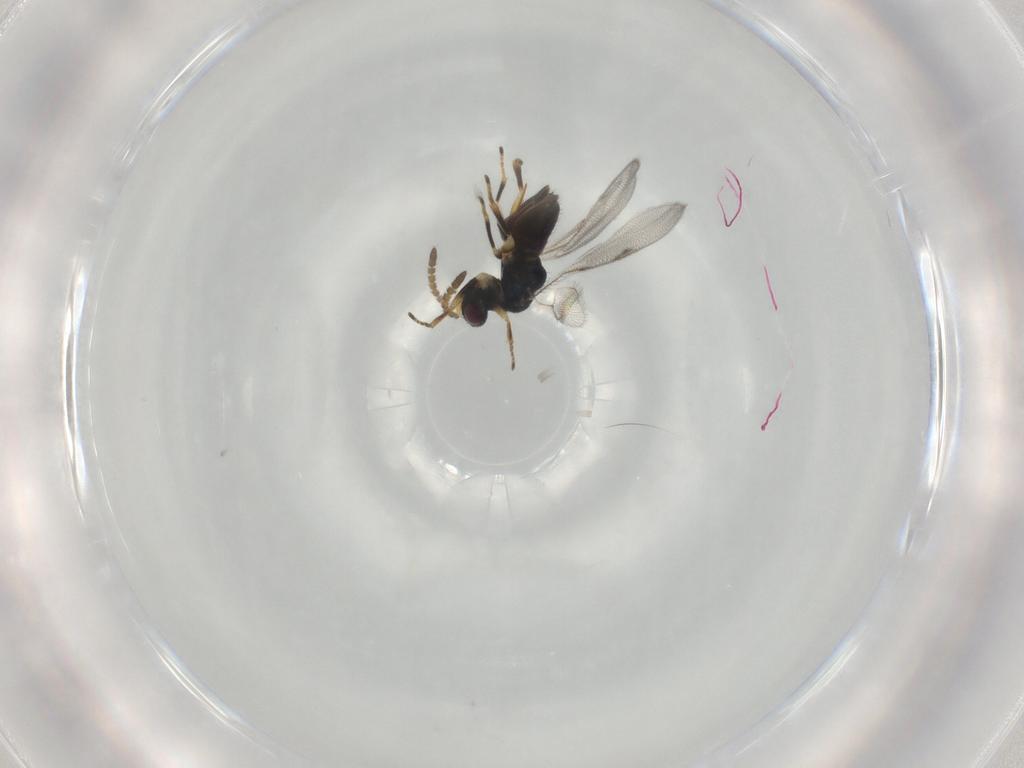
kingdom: Animalia
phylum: Arthropoda
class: Insecta
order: Hymenoptera
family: Pirenidae
